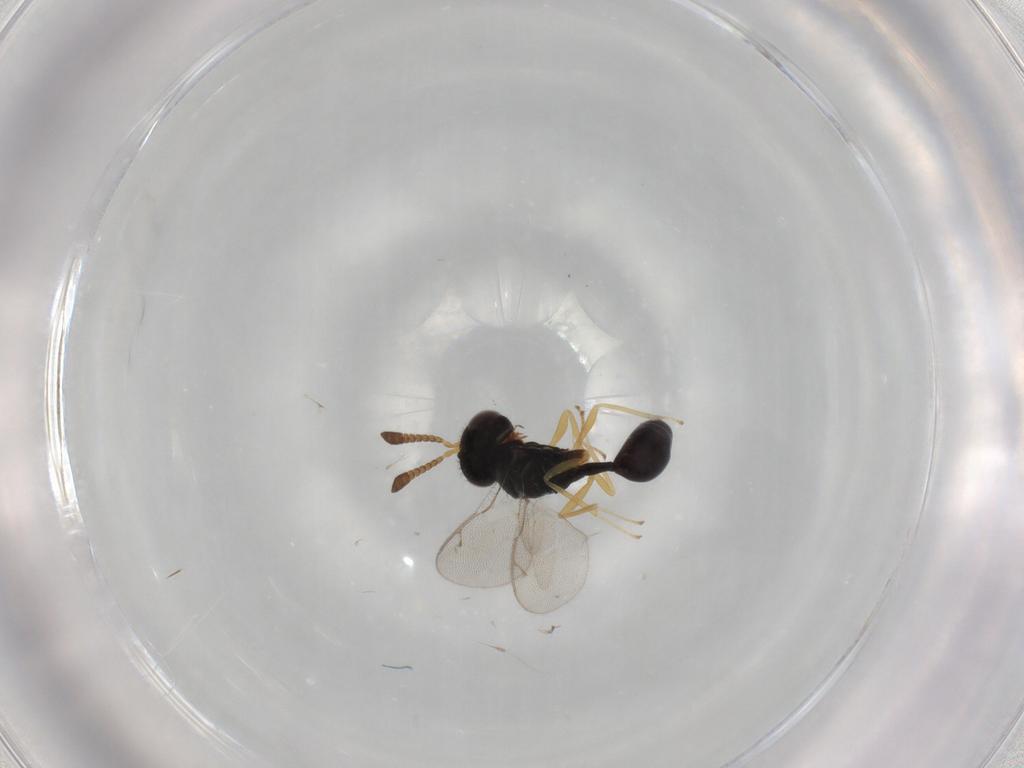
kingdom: Animalia
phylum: Arthropoda
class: Insecta
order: Hymenoptera
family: Pteromalidae
